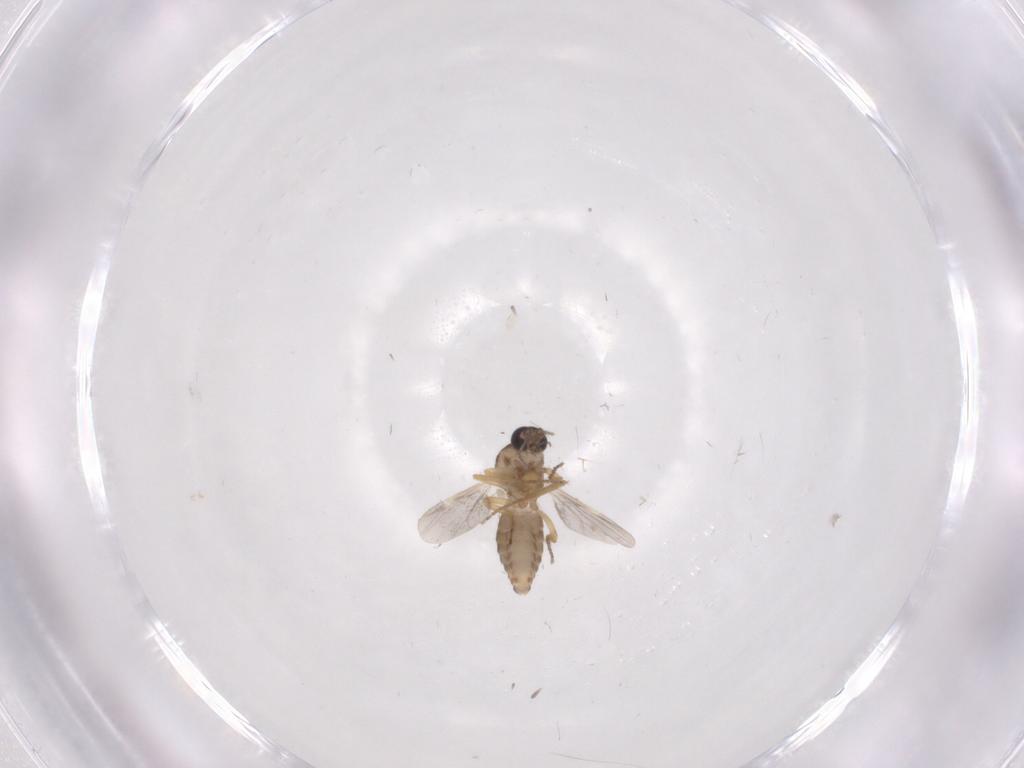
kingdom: Animalia
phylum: Arthropoda
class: Insecta
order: Diptera
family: Ceratopogonidae
